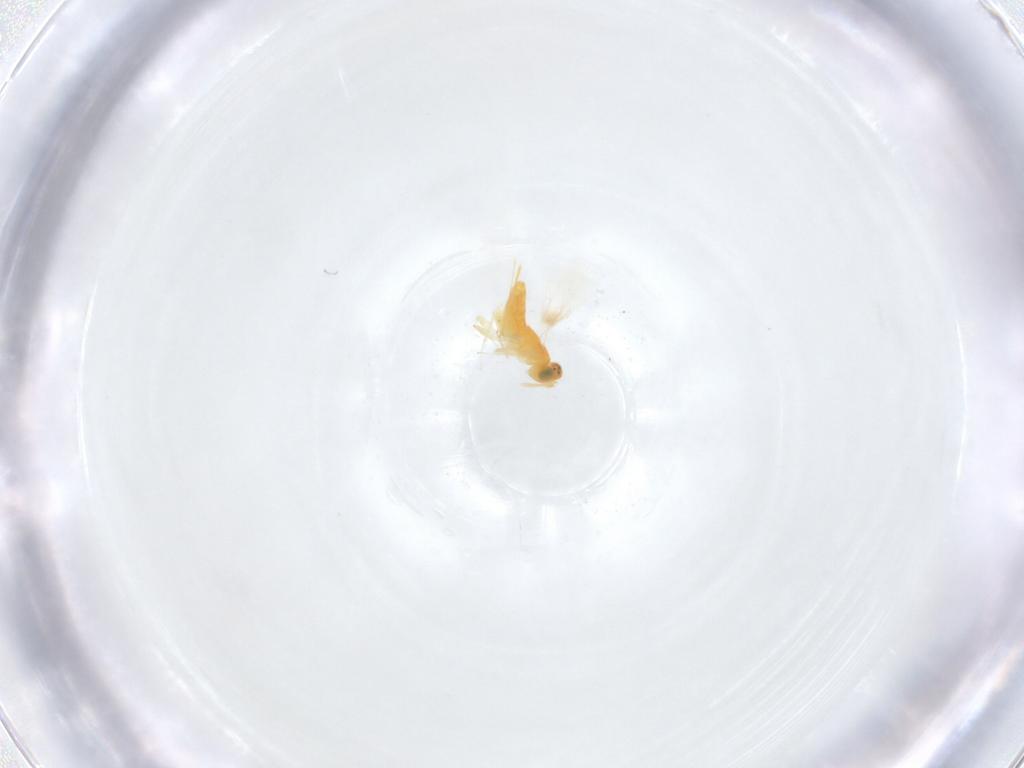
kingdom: Animalia
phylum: Arthropoda
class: Insecta
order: Hymenoptera
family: Aphelinidae
